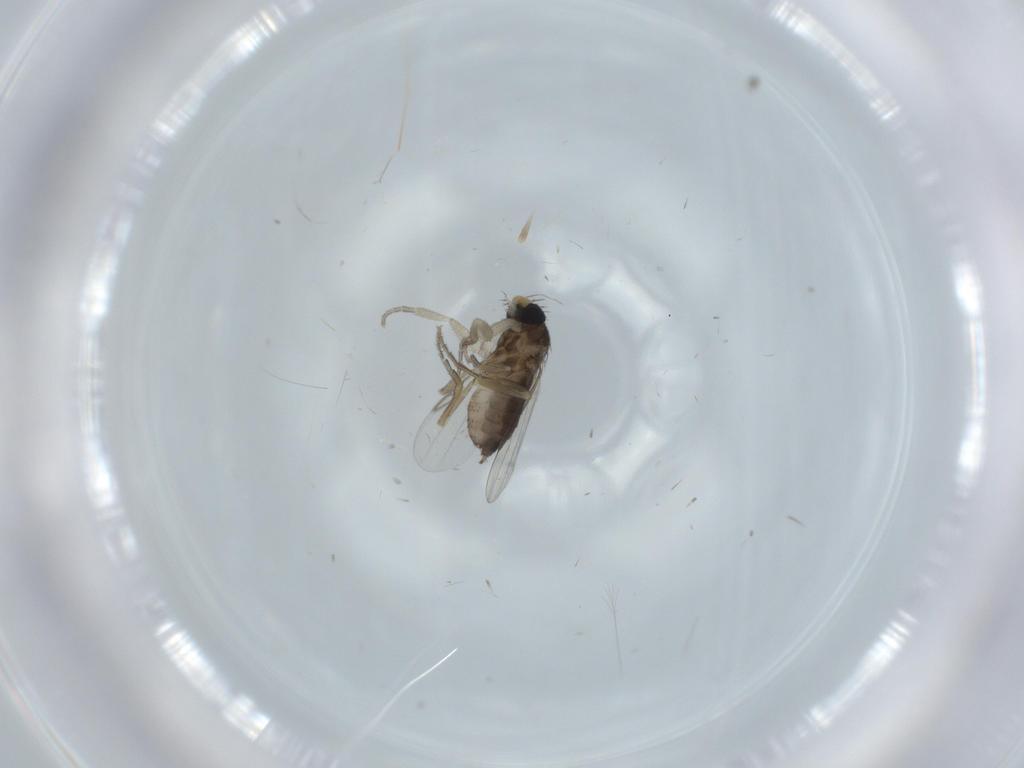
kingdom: Animalia
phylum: Arthropoda
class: Insecta
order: Diptera
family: Phoridae
